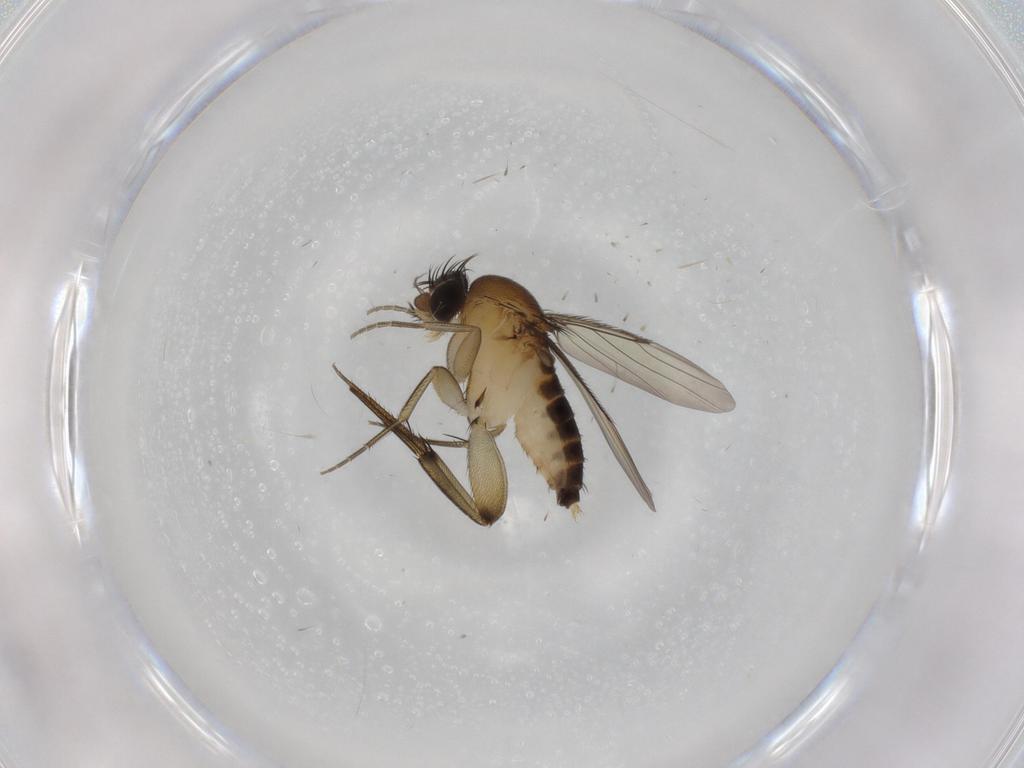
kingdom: Animalia
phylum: Arthropoda
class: Insecta
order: Diptera
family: Phoridae
